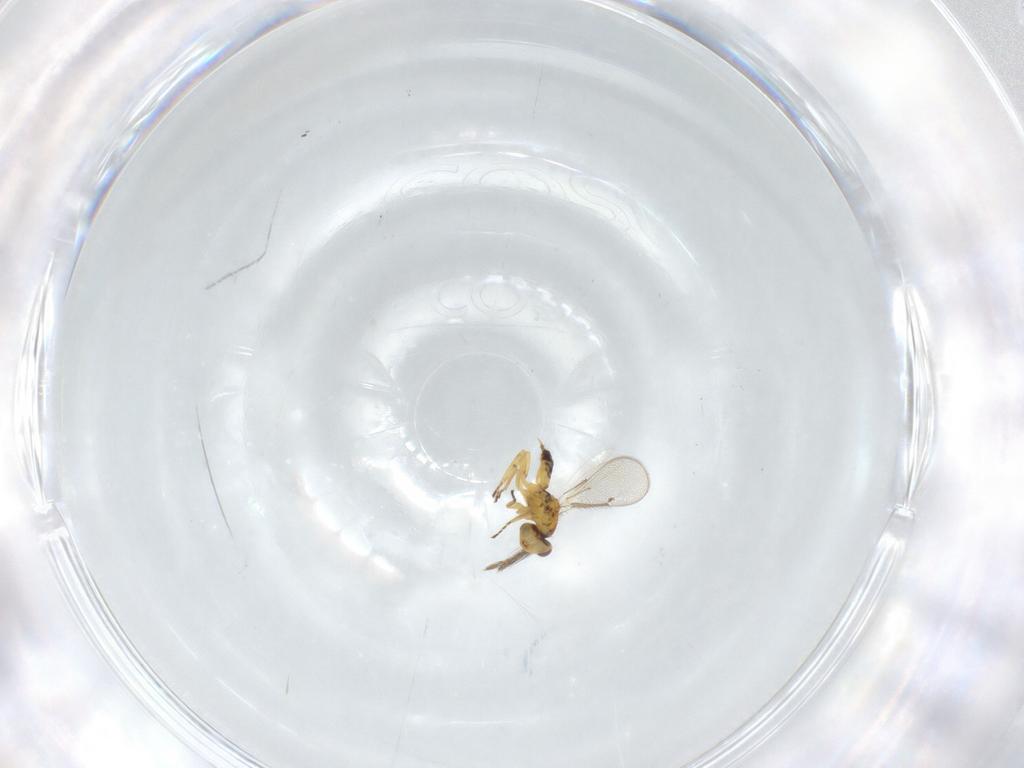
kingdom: Animalia
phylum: Arthropoda
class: Insecta
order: Hymenoptera
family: Eulophidae
